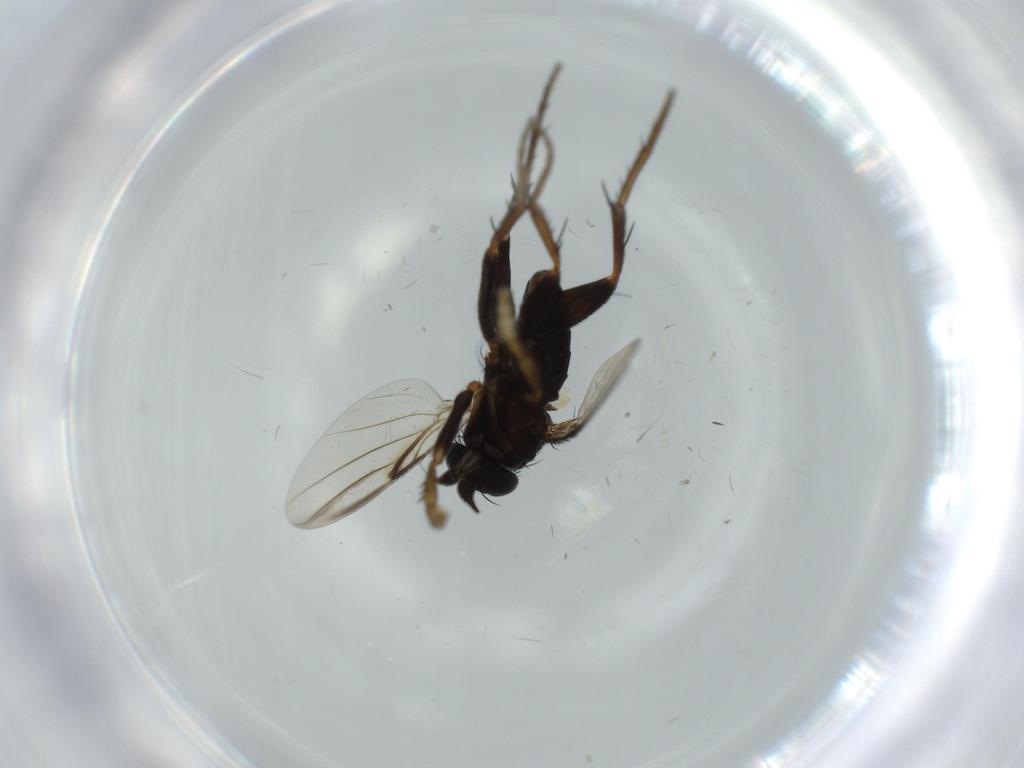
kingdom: Animalia
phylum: Arthropoda
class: Insecta
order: Diptera
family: Phoridae
